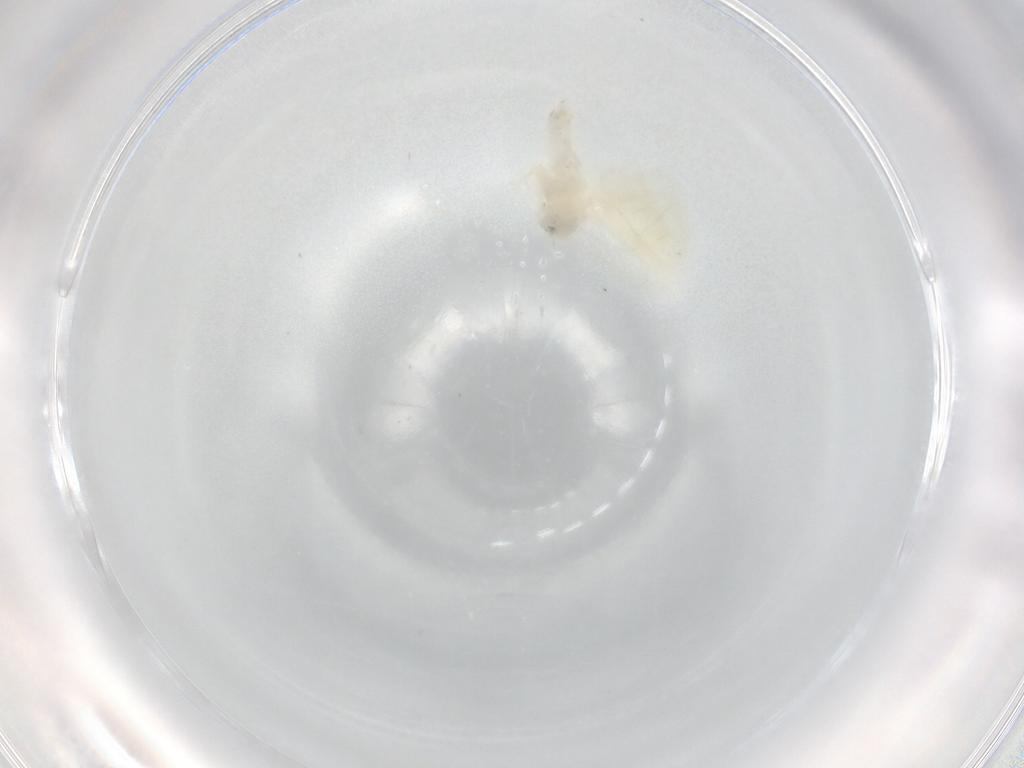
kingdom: Animalia
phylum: Arthropoda
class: Insecta
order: Hemiptera
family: Aleyrodidae
